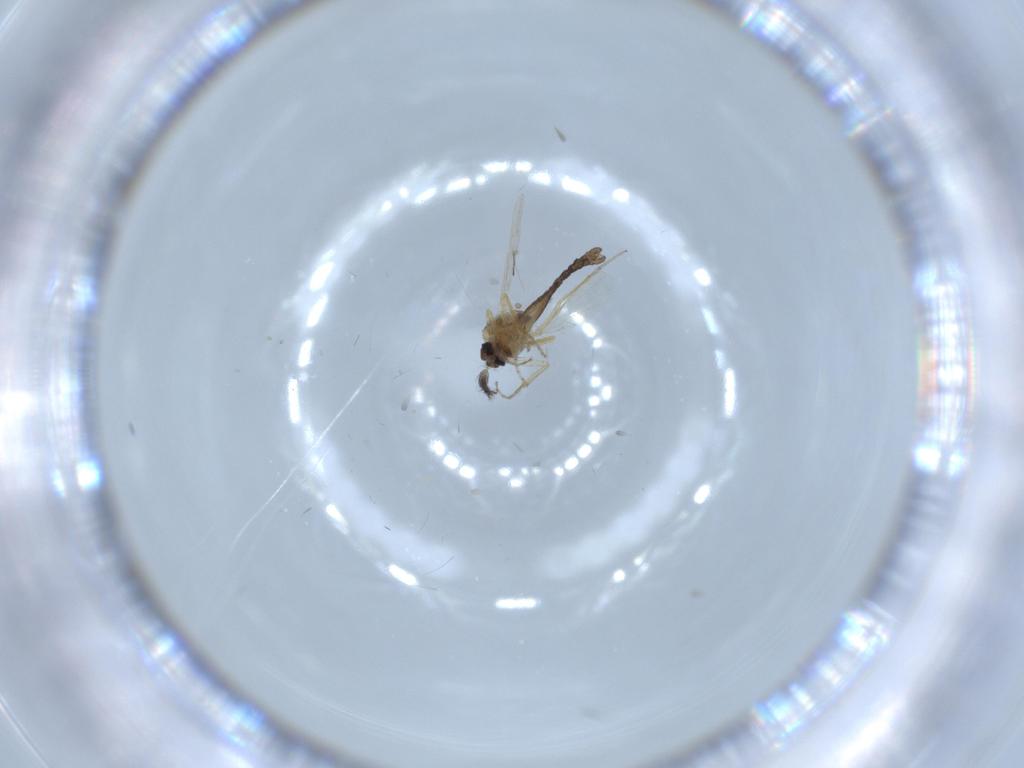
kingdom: Animalia
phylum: Arthropoda
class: Insecta
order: Diptera
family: Ceratopogonidae
